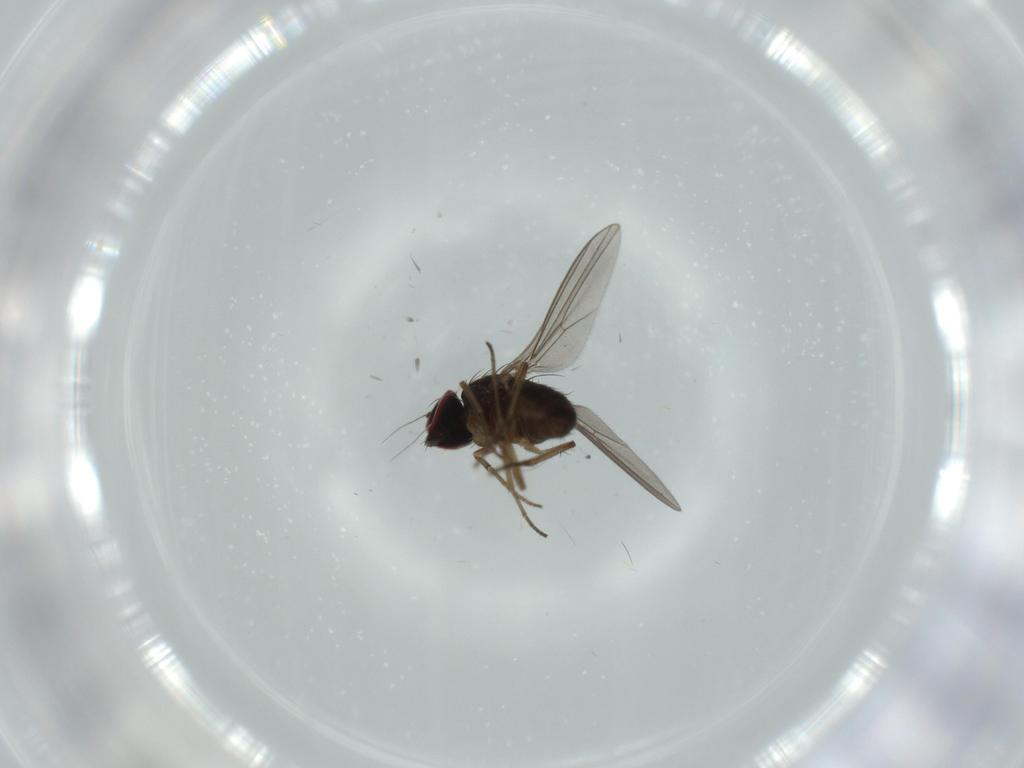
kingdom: Animalia
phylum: Arthropoda
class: Insecta
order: Diptera
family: Dolichopodidae
